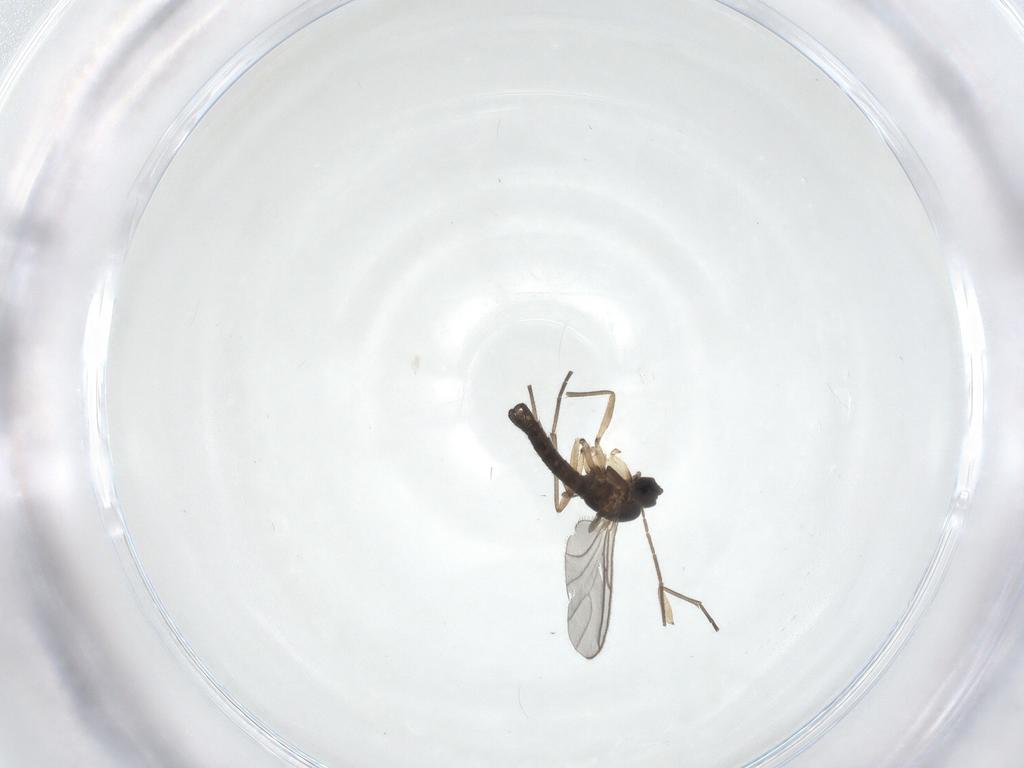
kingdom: Animalia
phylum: Arthropoda
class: Insecta
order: Diptera
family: Sciaridae
